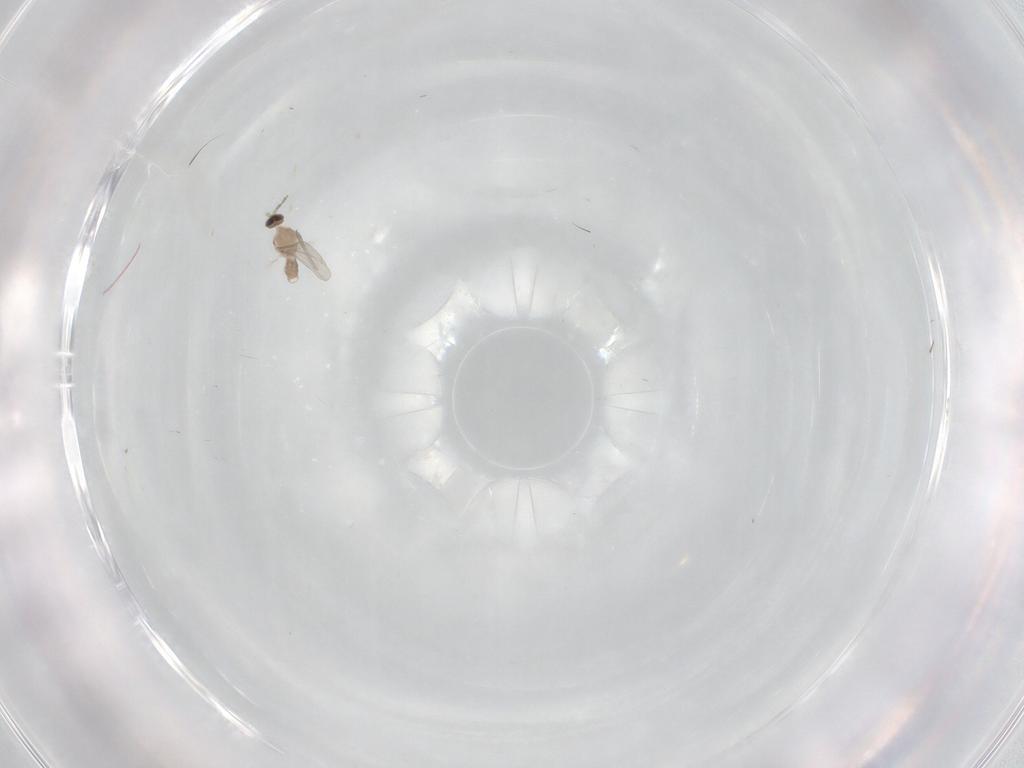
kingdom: Animalia
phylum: Arthropoda
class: Insecta
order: Diptera
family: Cecidomyiidae
